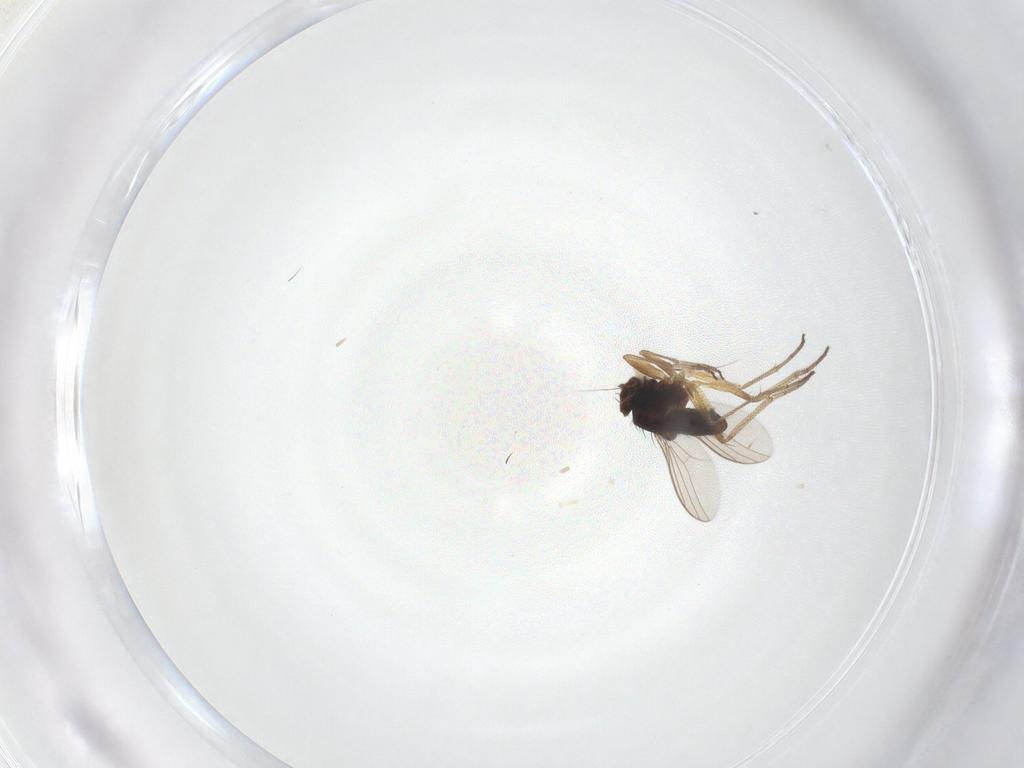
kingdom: Animalia
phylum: Arthropoda
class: Insecta
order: Diptera
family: Dolichopodidae
